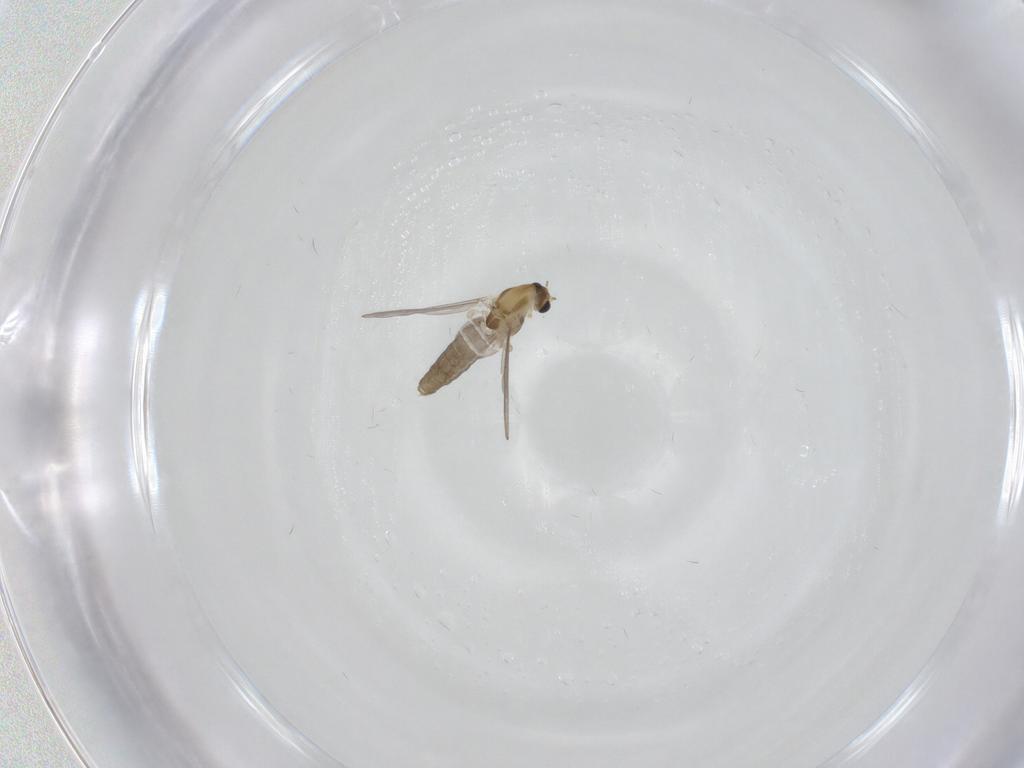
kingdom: Animalia
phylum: Arthropoda
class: Insecta
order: Diptera
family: Chironomidae
